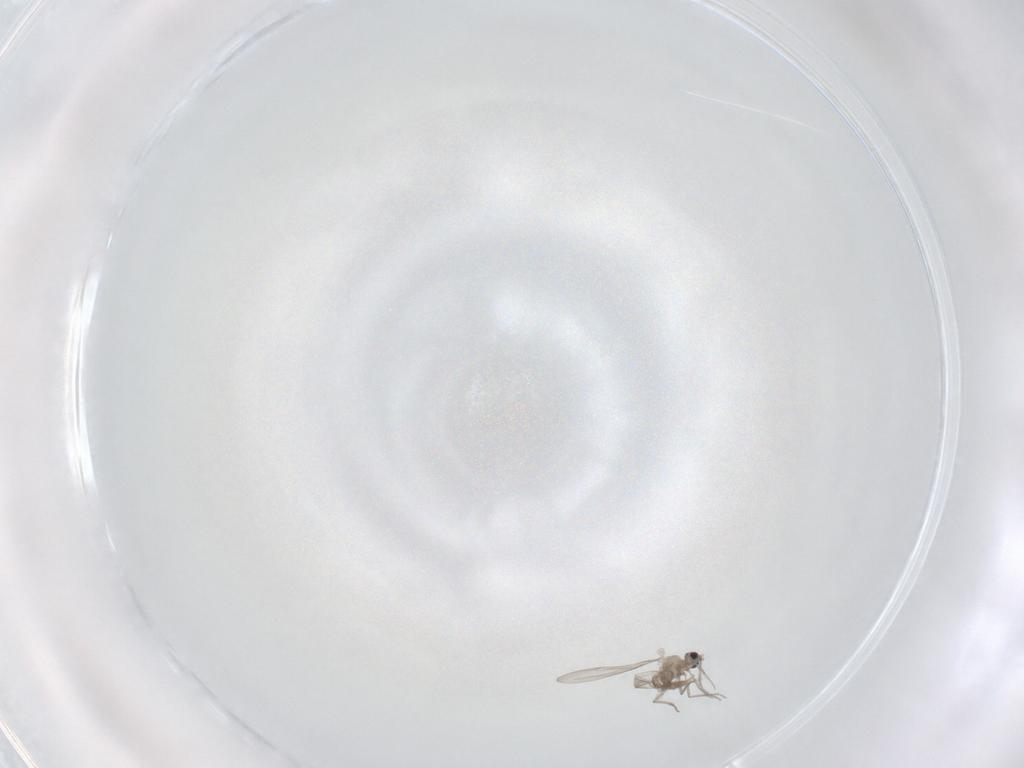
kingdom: Animalia
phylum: Arthropoda
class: Insecta
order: Diptera
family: Cecidomyiidae
